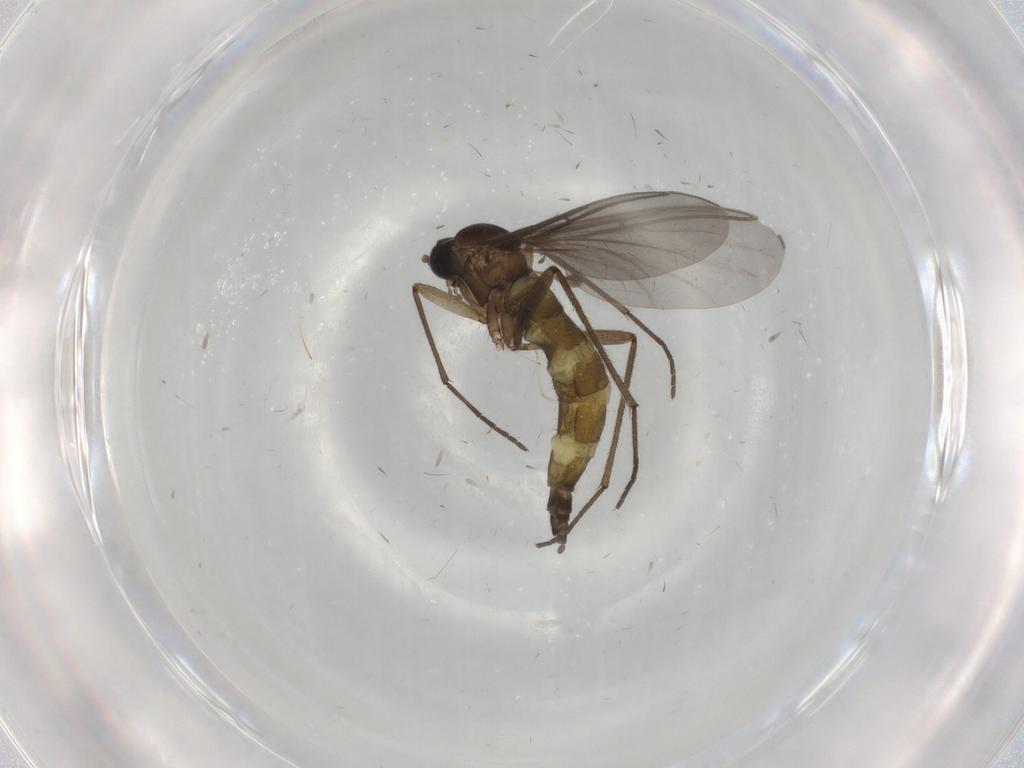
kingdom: Animalia
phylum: Arthropoda
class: Insecta
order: Diptera
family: Sciaridae
